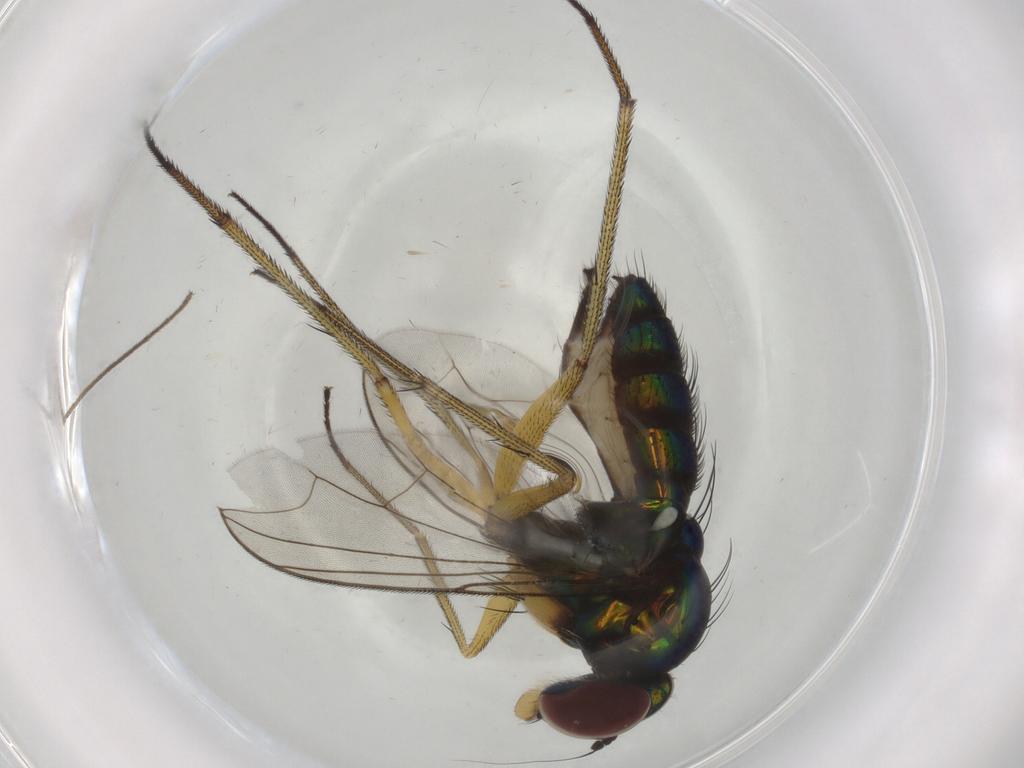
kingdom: Animalia
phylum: Arthropoda
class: Insecta
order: Diptera
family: Dolichopodidae
